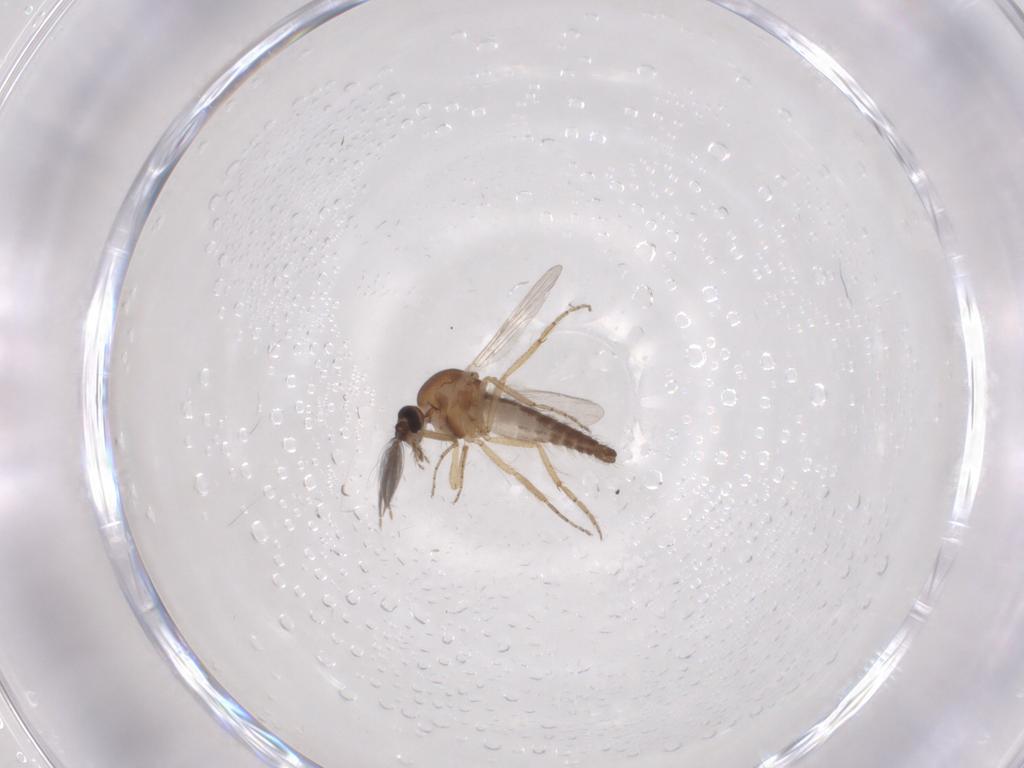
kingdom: Animalia
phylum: Arthropoda
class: Insecta
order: Diptera
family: Ceratopogonidae
